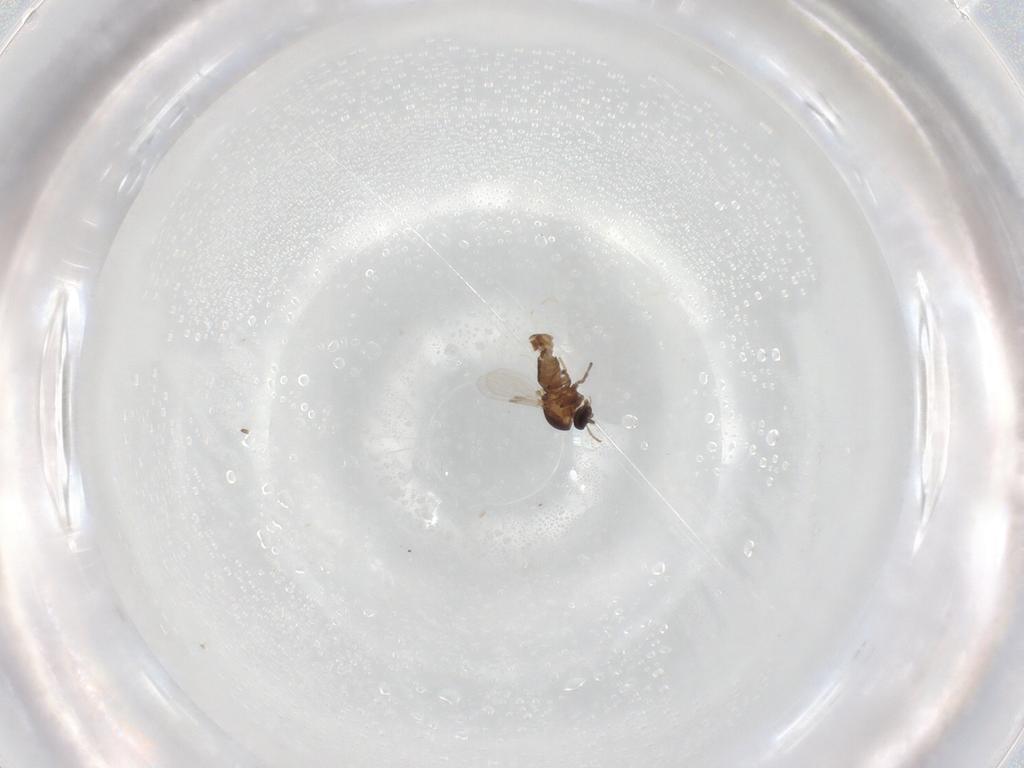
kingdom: Animalia
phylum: Arthropoda
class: Insecta
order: Diptera
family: Ceratopogonidae
